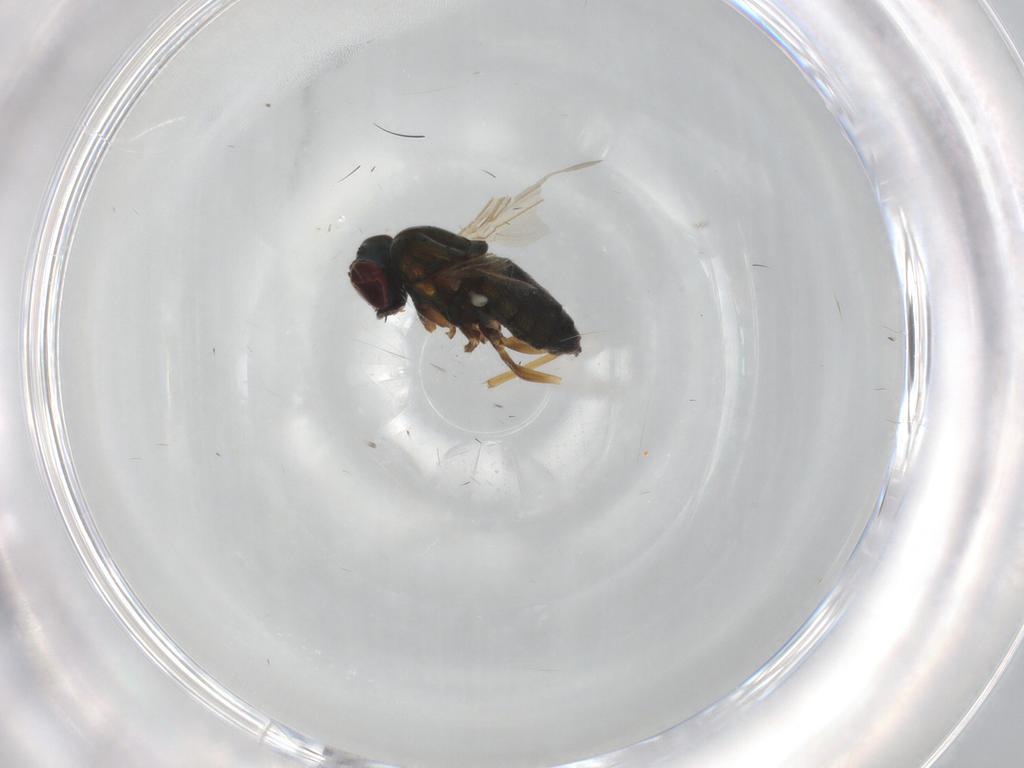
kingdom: Animalia
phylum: Arthropoda
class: Insecta
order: Diptera
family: Dolichopodidae
